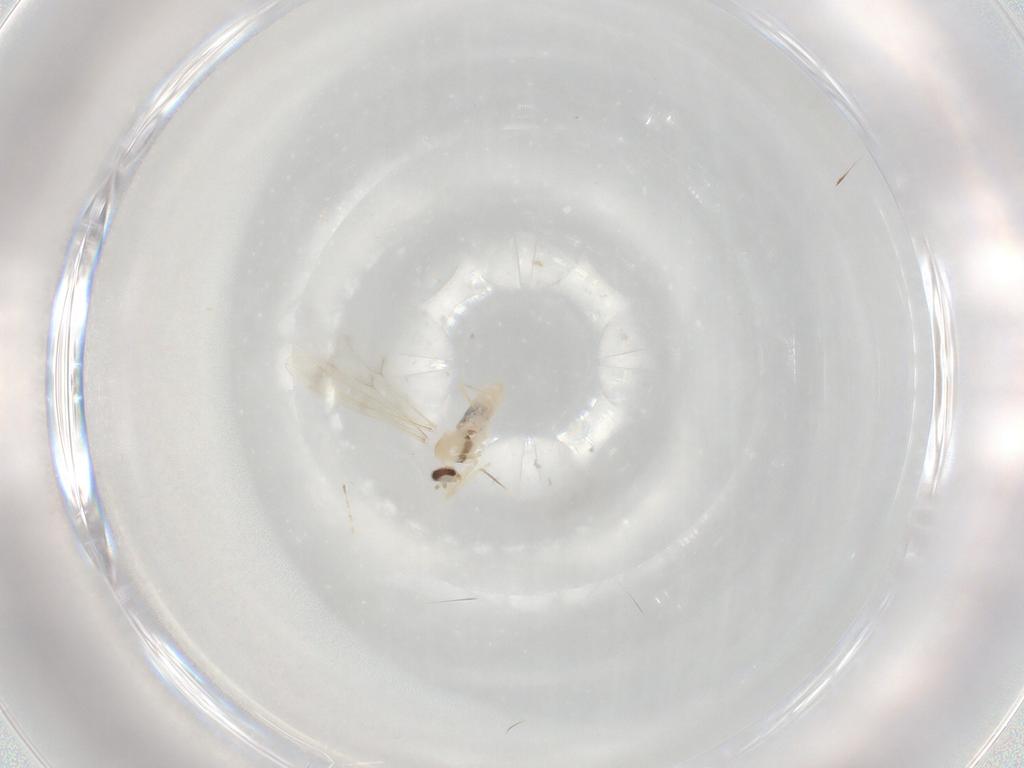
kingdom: Animalia
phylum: Arthropoda
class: Insecta
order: Diptera
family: Cecidomyiidae
